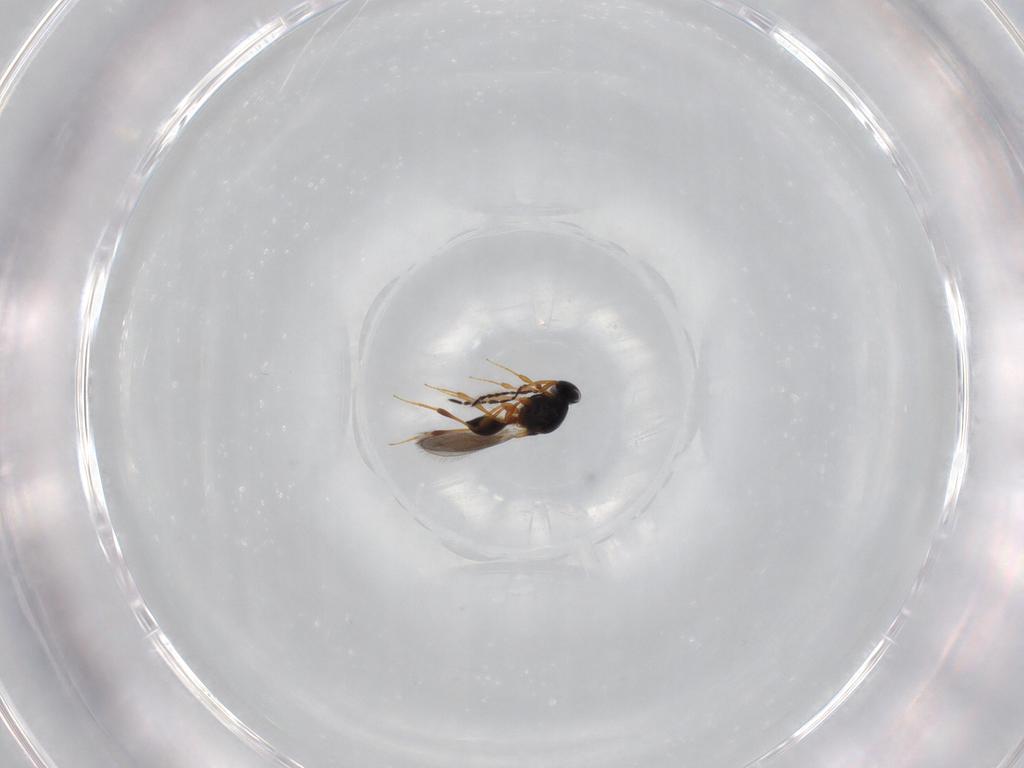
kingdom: Animalia
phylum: Arthropoda
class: Insecta
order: Hymenoptera
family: Platygastridae
